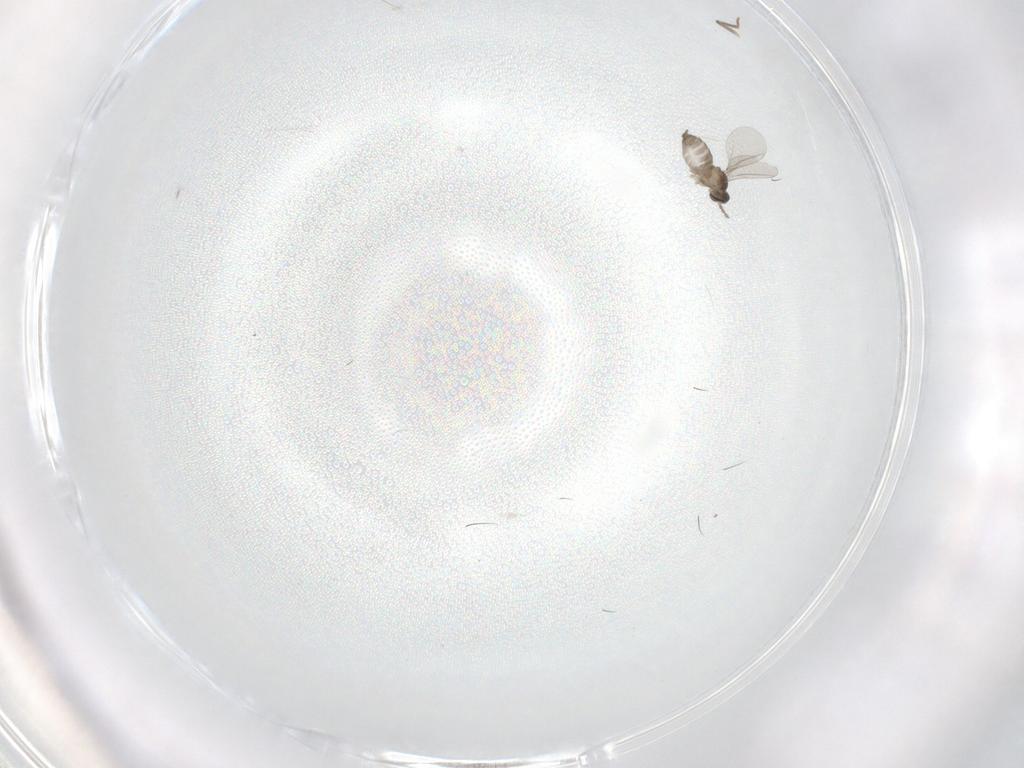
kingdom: Animalia
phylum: Arthropoda
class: Insecta
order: Diptera
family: Cecidomyiidae
